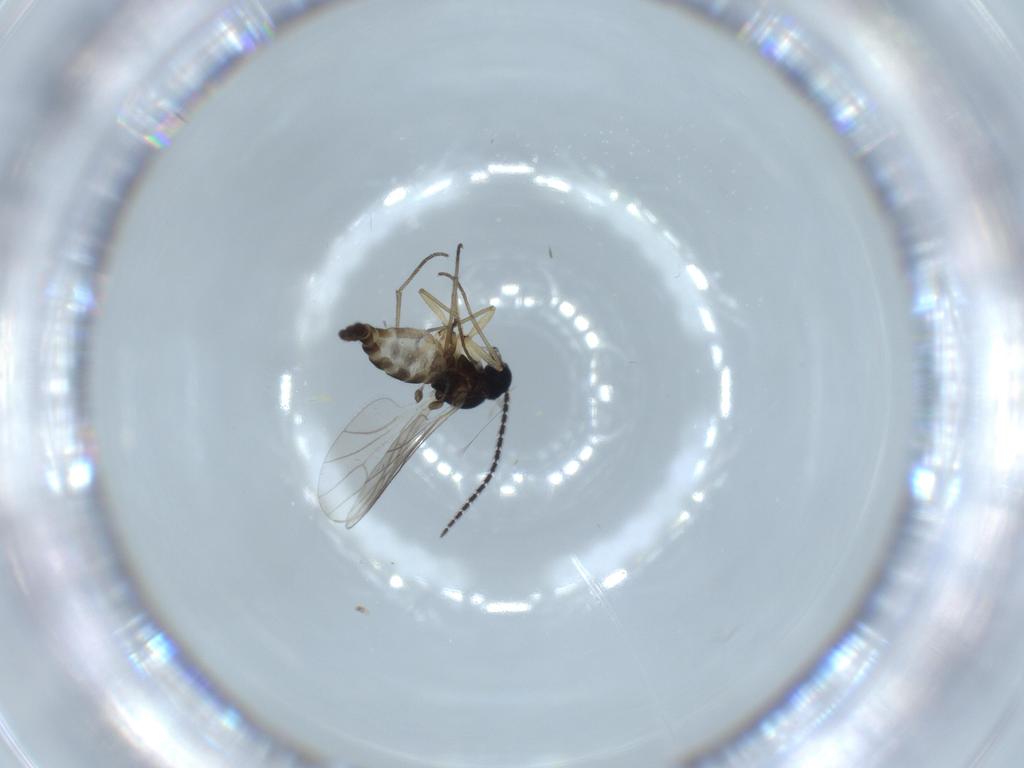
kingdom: Animalia
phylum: Arthropoda
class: Insecta
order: Diptera
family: Sciaridae
